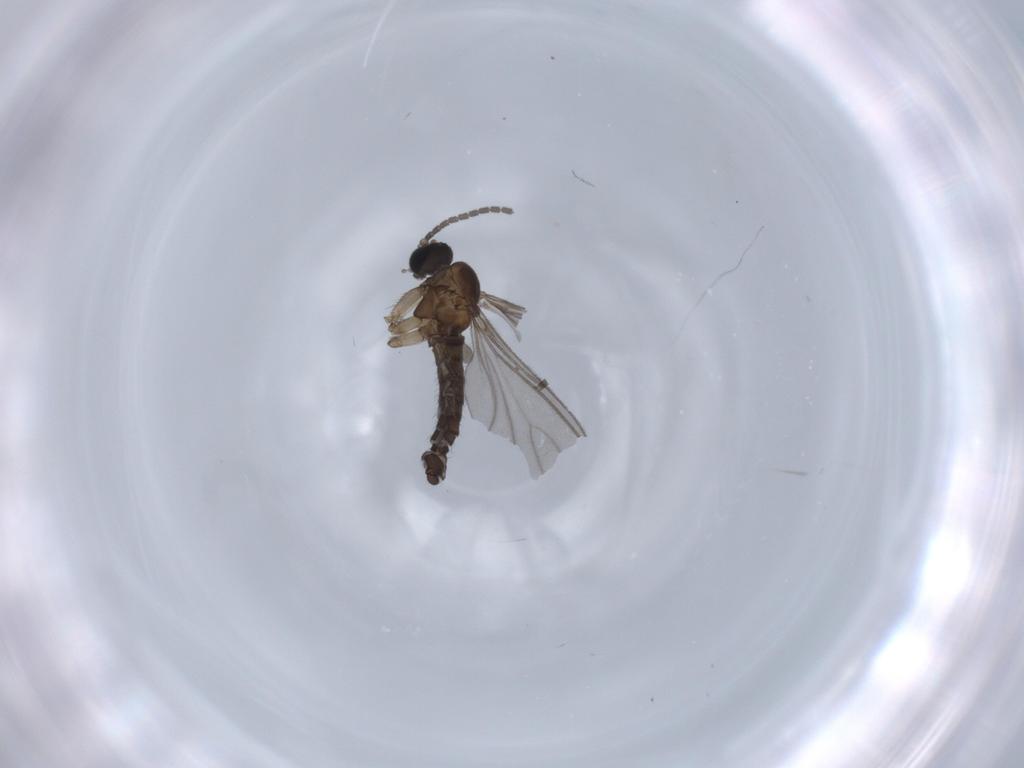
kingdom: Animalia
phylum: Arthropoda
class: Insecta
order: Diptera
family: Sciaridae
